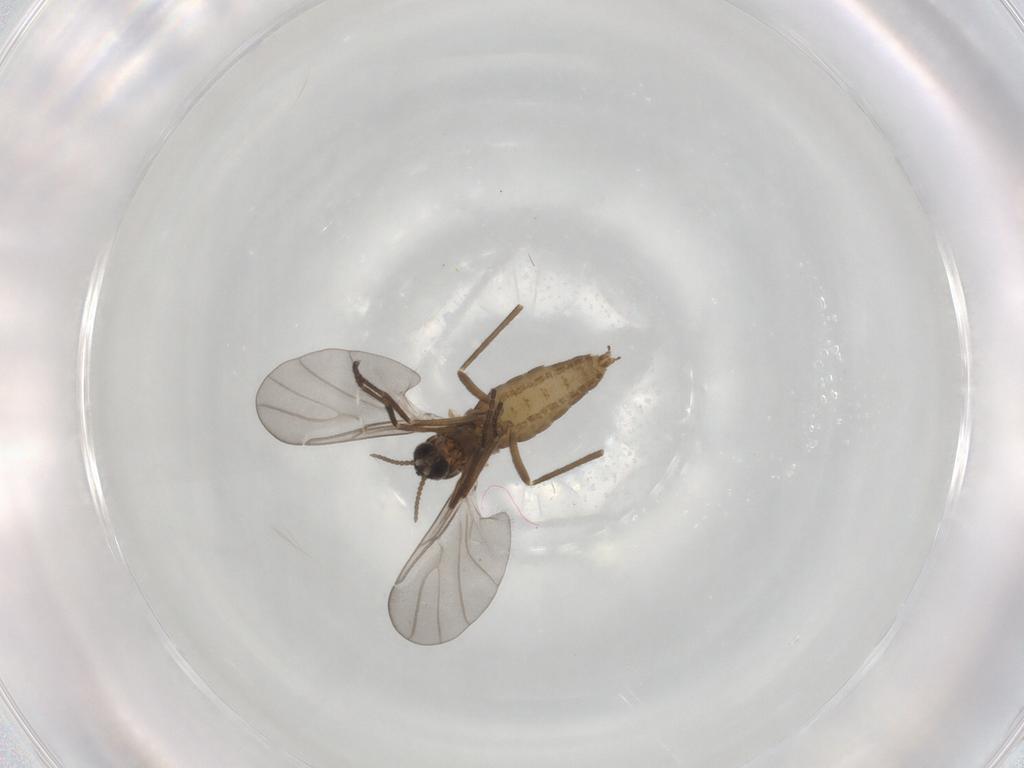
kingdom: Animalia
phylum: Arthropoda
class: Insecta
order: Diptera
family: Cecidomyiidae
